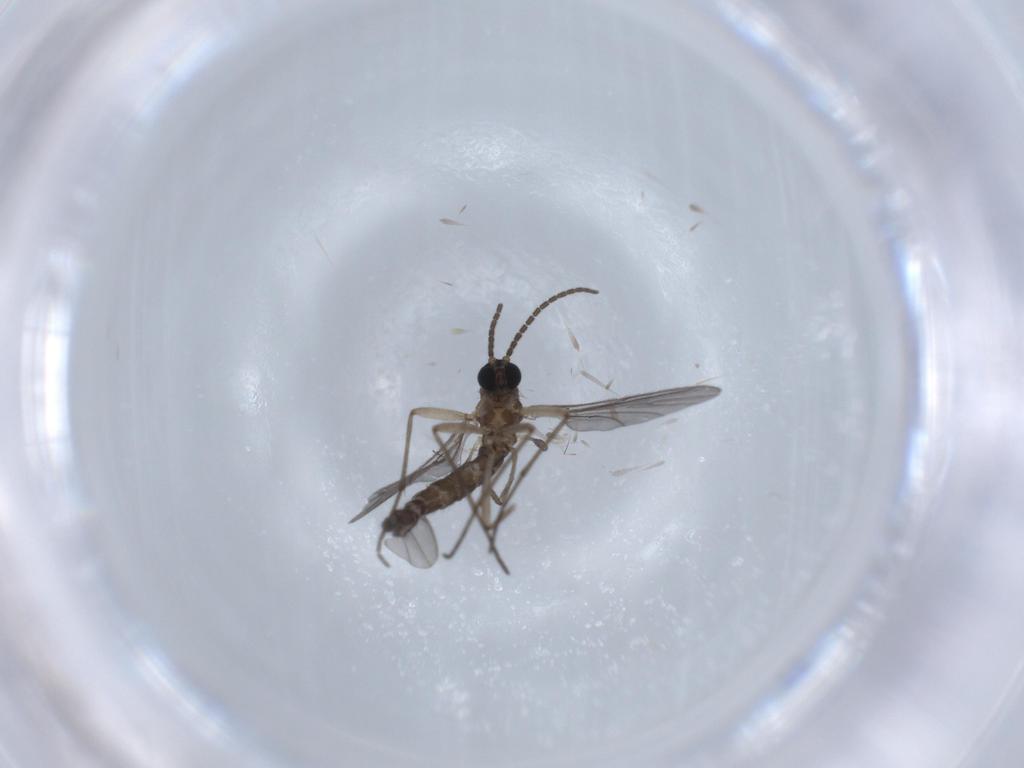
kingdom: Animalia
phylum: Arthropoda
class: Insecta
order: Diptera
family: Sciaridae
